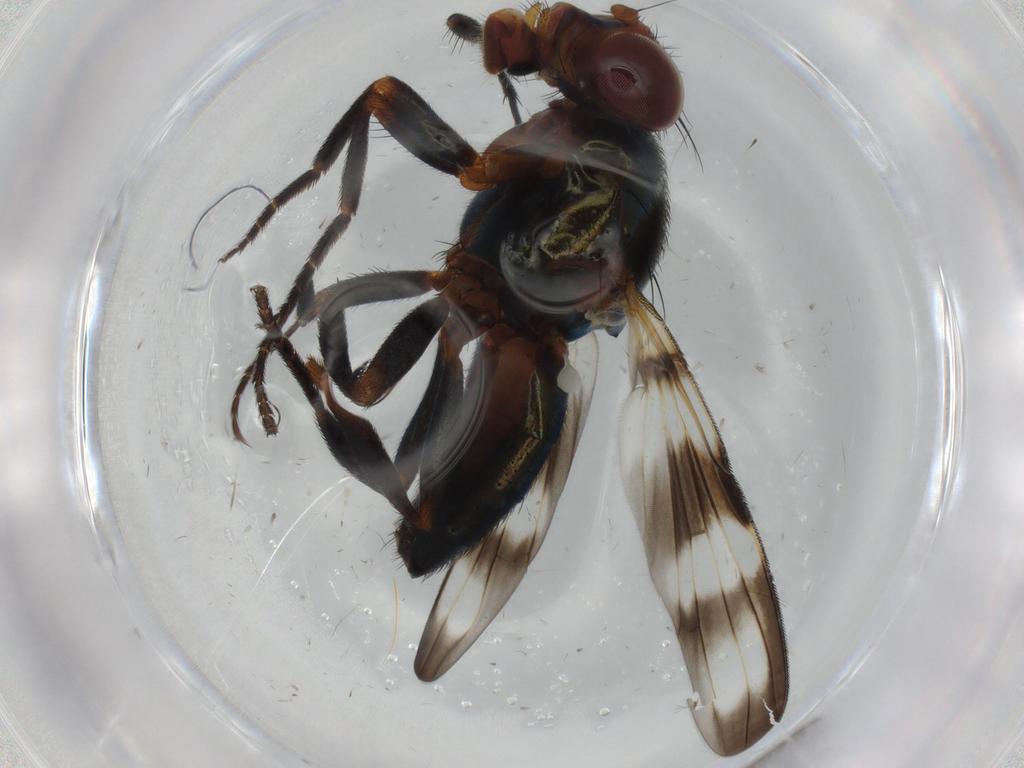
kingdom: Animalia
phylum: Arthropoda
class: Insecta
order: Diptera
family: Tephritidae
